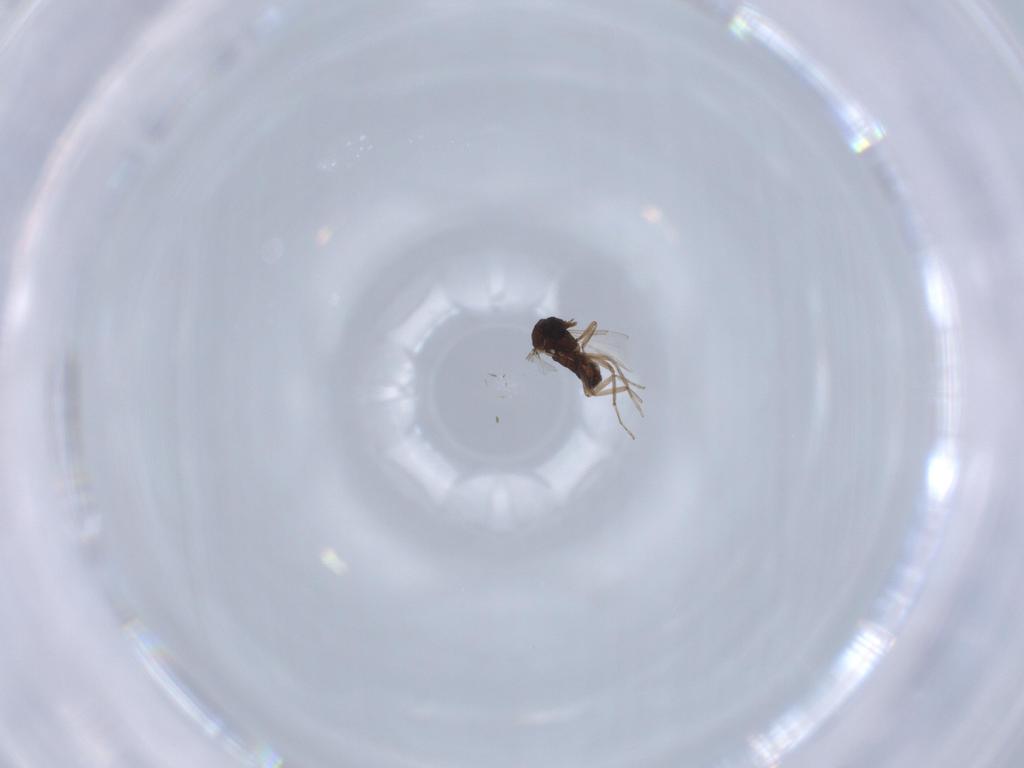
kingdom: Animalia
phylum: Arthropoda
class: Insecta
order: Diptera
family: Ceratopogonidae
